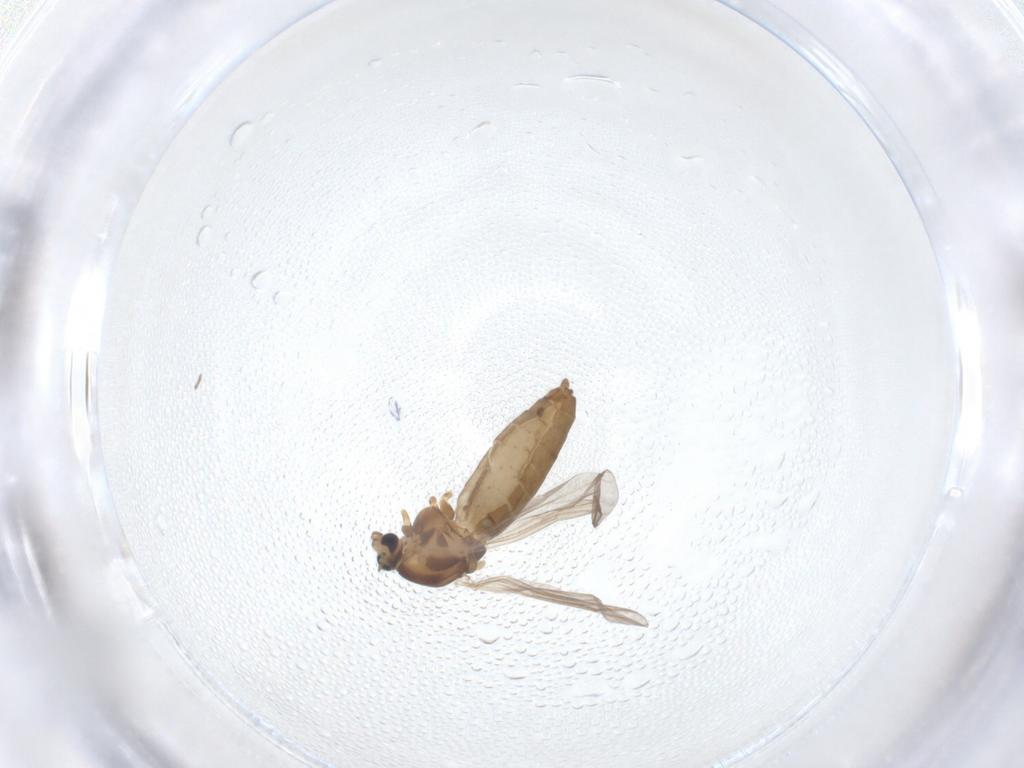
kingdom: Animalia
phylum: Arthropoda
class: Insecta
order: Diptera
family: Chironomidae
